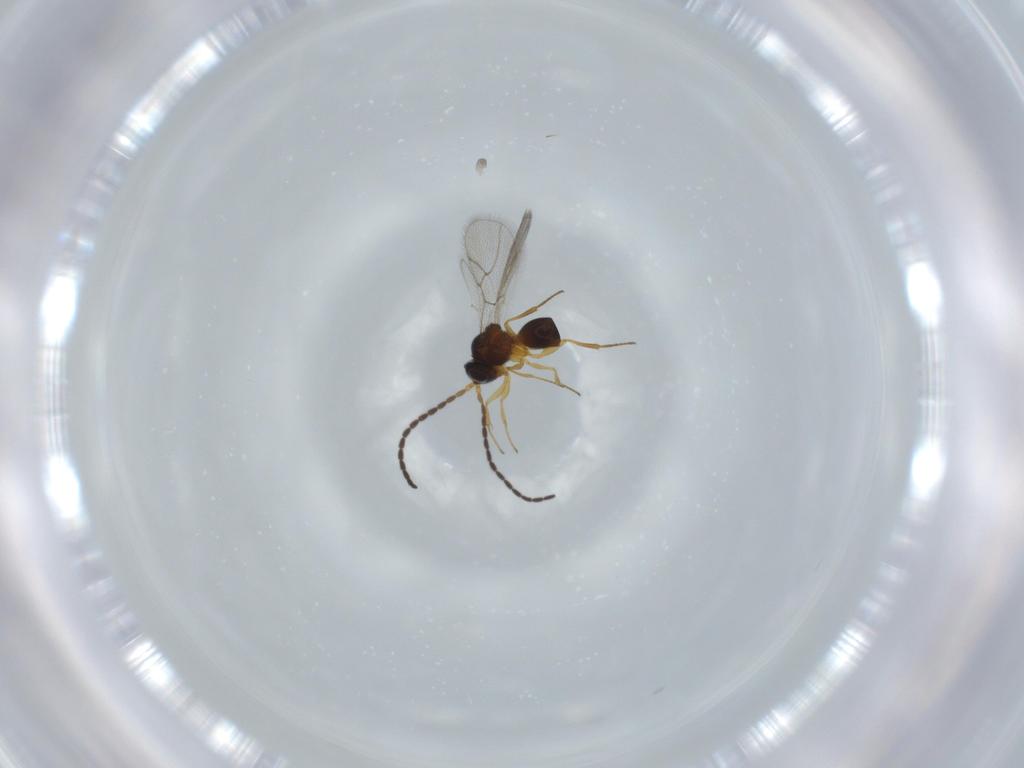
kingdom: Animalia
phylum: Arthropoda
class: Insecta
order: Hymenoptera
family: Figitidae
